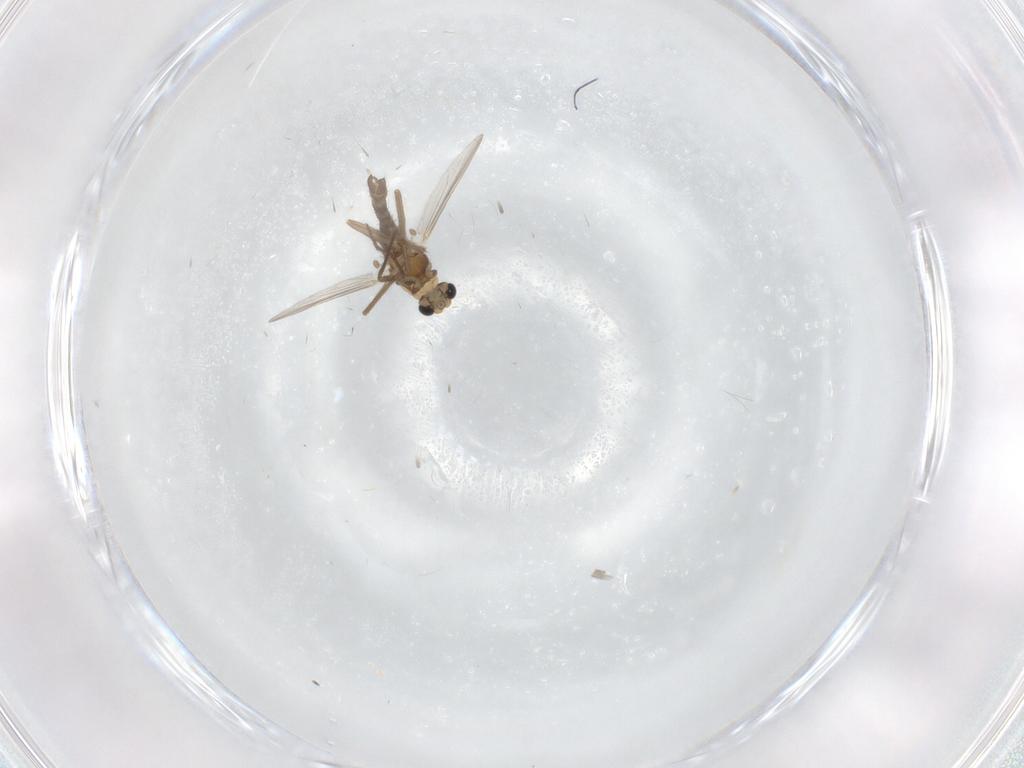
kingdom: Animalia
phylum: Arthropoda
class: Insecta
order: Diptera
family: Chironomidae
